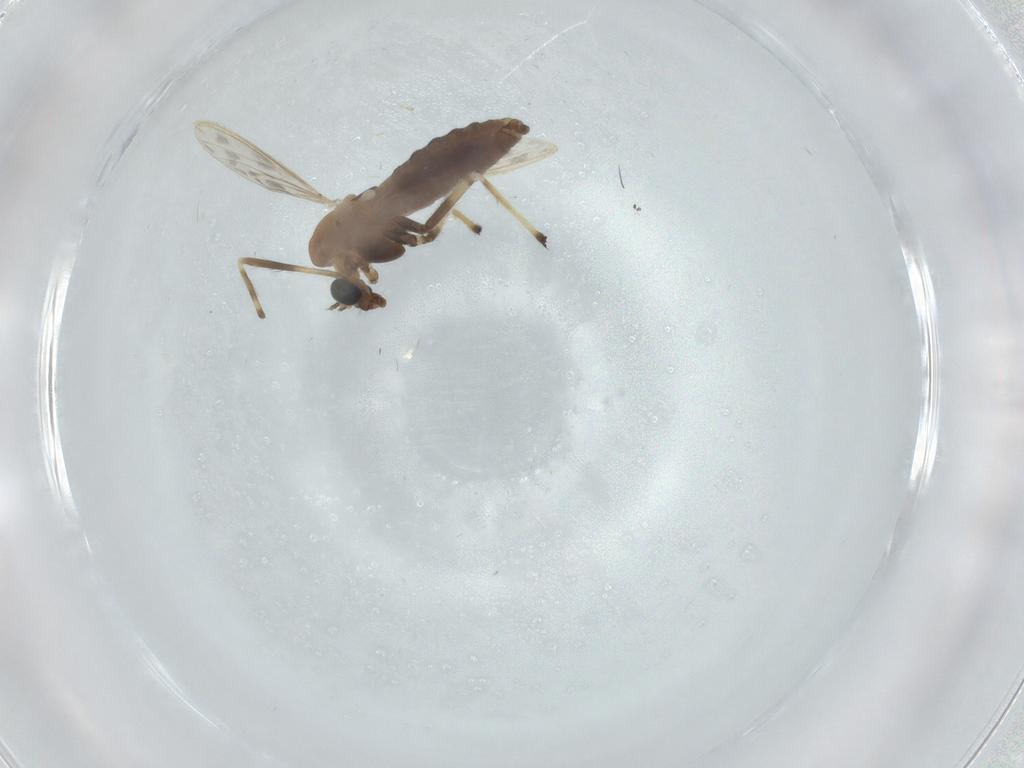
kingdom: Animalia
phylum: Arthropoda
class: Insecta
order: Diptera
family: Chironomidae
